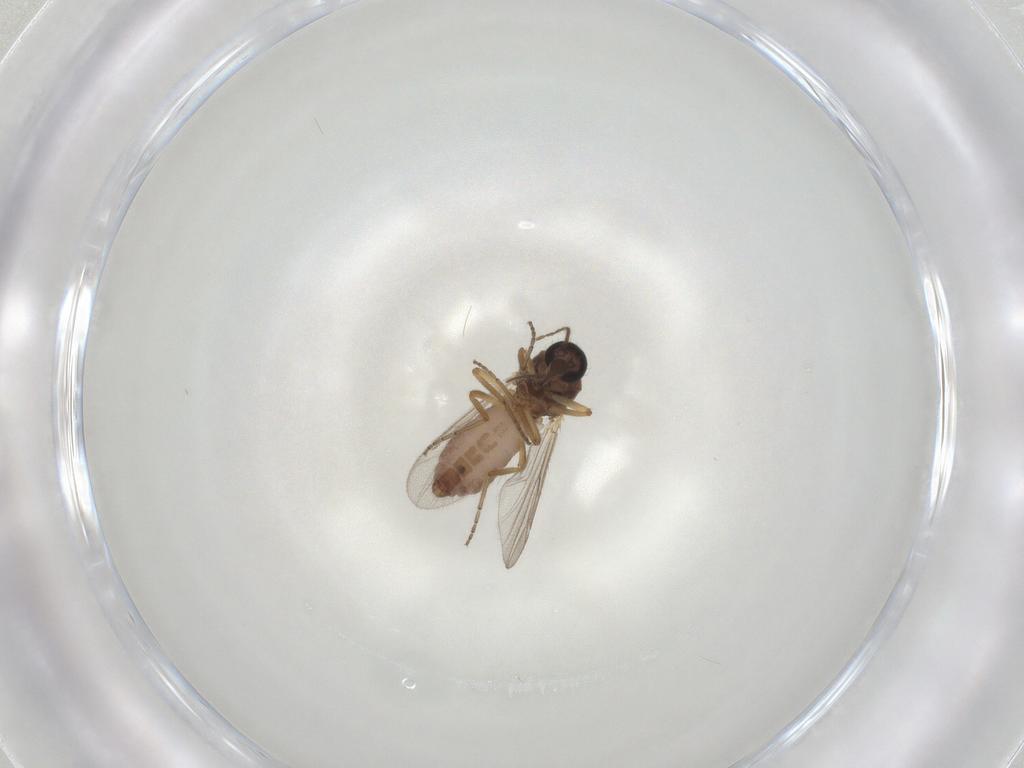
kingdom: Animalia
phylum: Arthropoda
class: Insecta
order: Diptera
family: Ceratopogonidae
